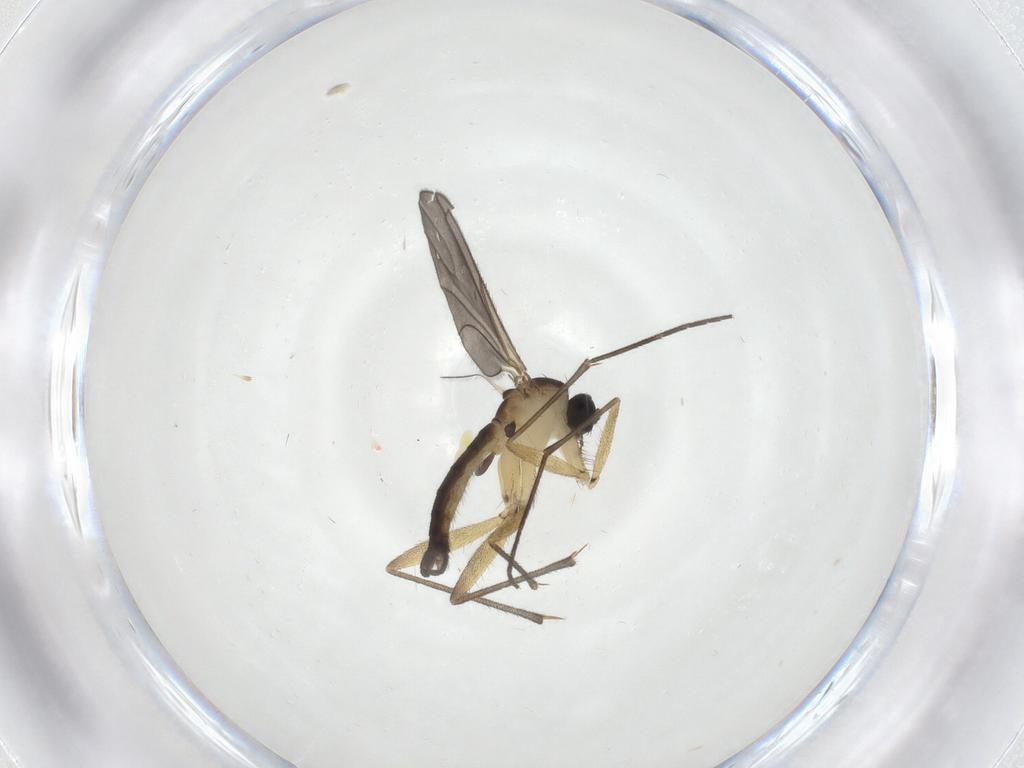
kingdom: Animalia
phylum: Arthropoda
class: Insecta
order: Diptera
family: Sciaridae
